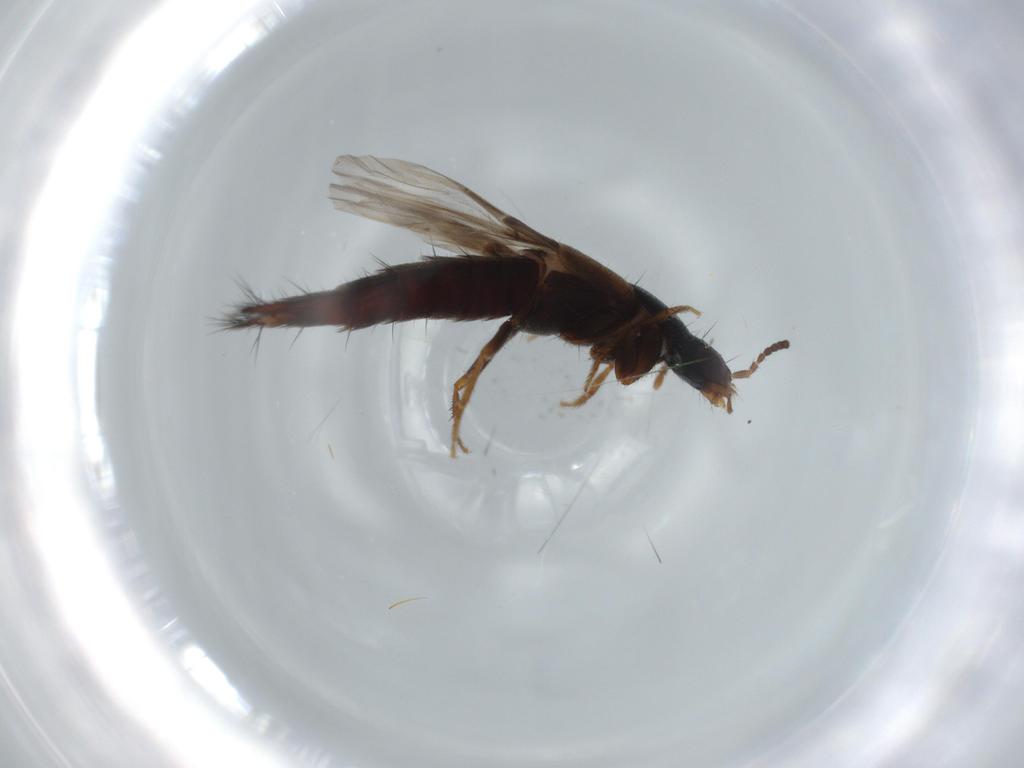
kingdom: Animalia
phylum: Arthropoda
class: Insecta
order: Coleoptera
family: Staphylinidae
